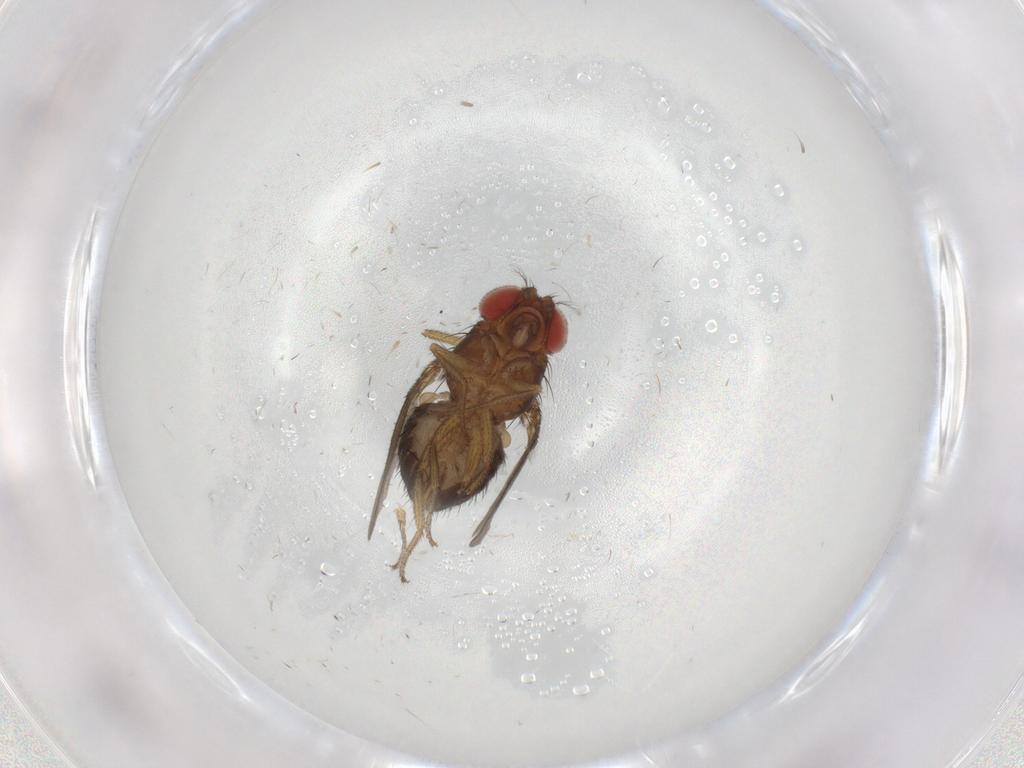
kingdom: Animalia
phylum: Arthropoda
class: Insecta
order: Diptera
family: Drosophilidae
